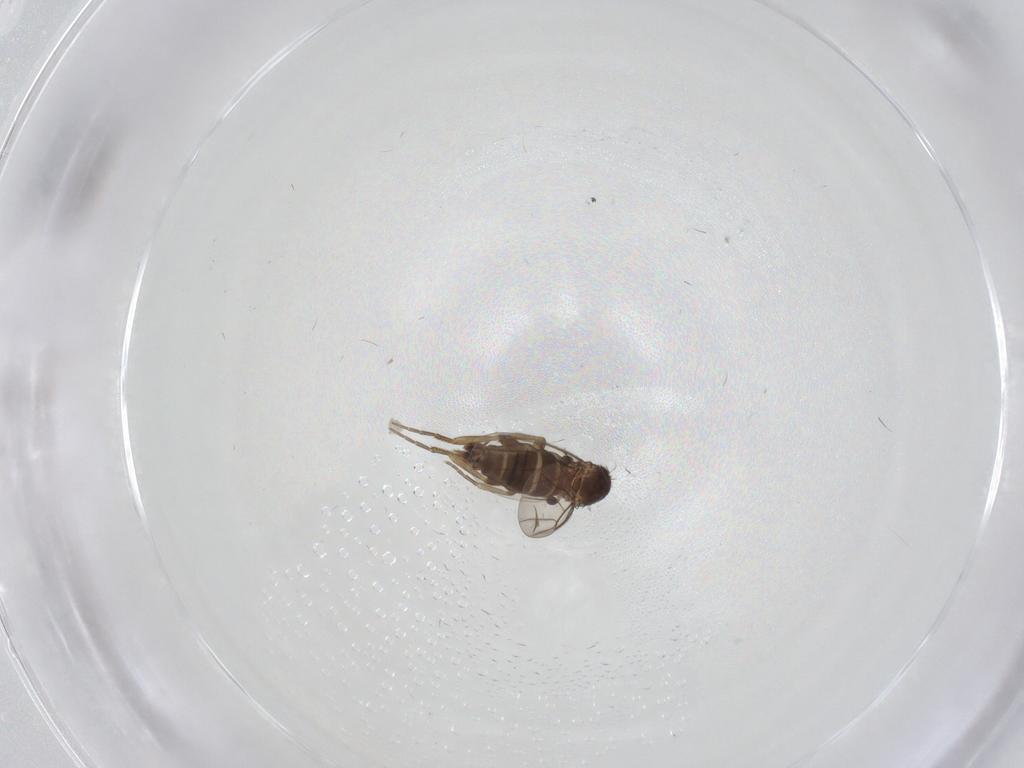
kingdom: Animalia
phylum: Arthropoda
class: Insecta
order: Diptera
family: Phoridae
